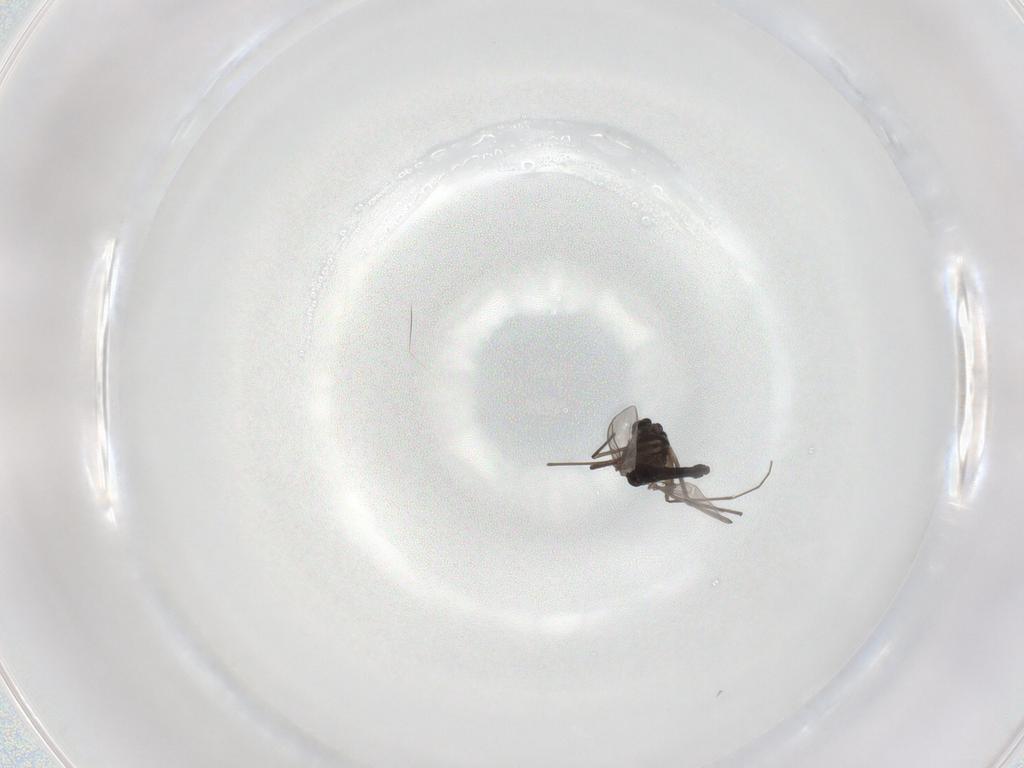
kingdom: Animalia
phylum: Arthropoda
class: Insecta
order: Diptera
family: Chironomidae
